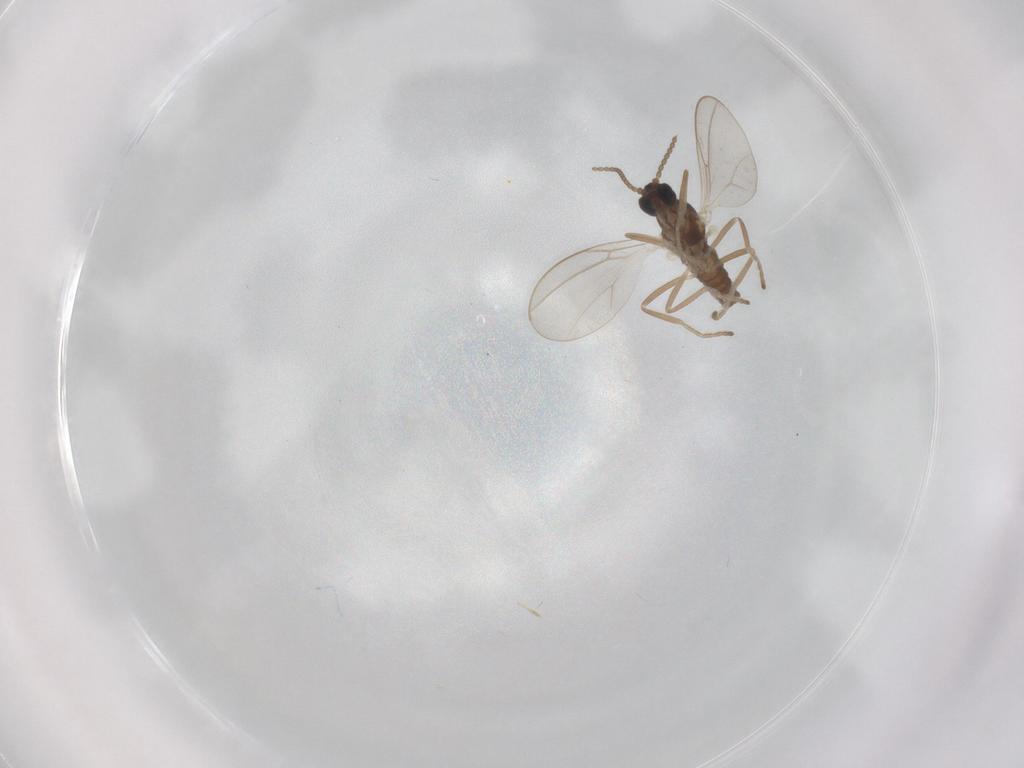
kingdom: Animalia
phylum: Arthropoda
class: Insecta
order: Diptera
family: Cecidomyiidae
